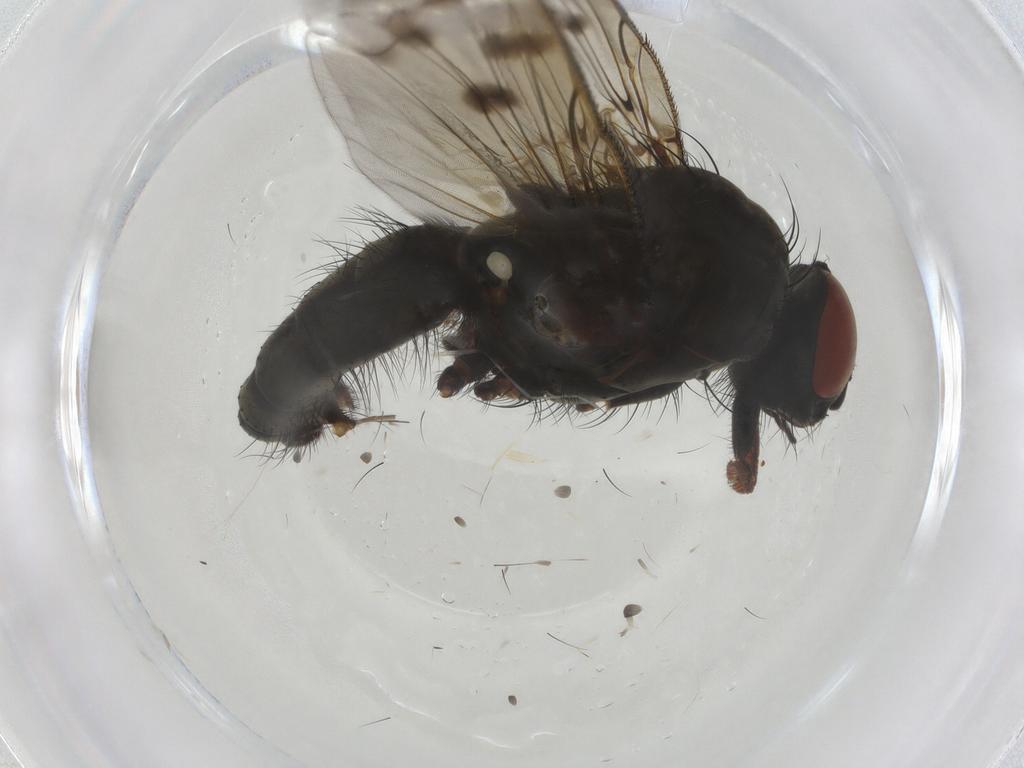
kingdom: Animalia
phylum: Arthropoda
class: Insecta
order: Diptera
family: Anthomyiidae
